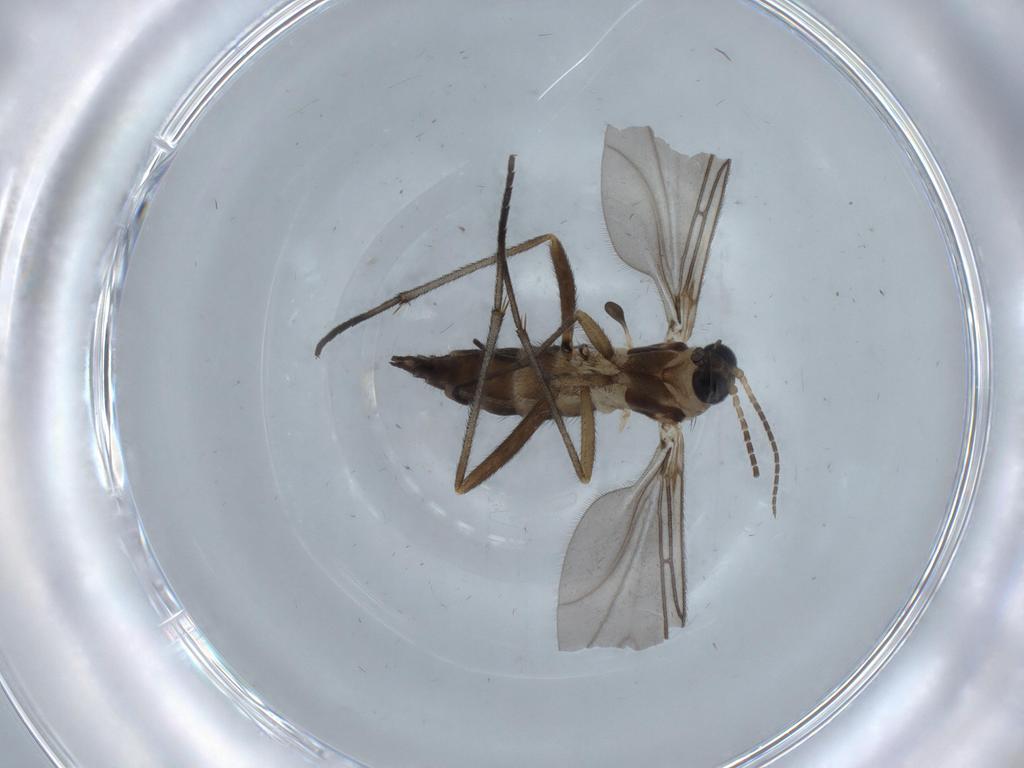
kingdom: Animalia
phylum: Arthropoda
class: Insecta
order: Diptera
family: Sciaridae
